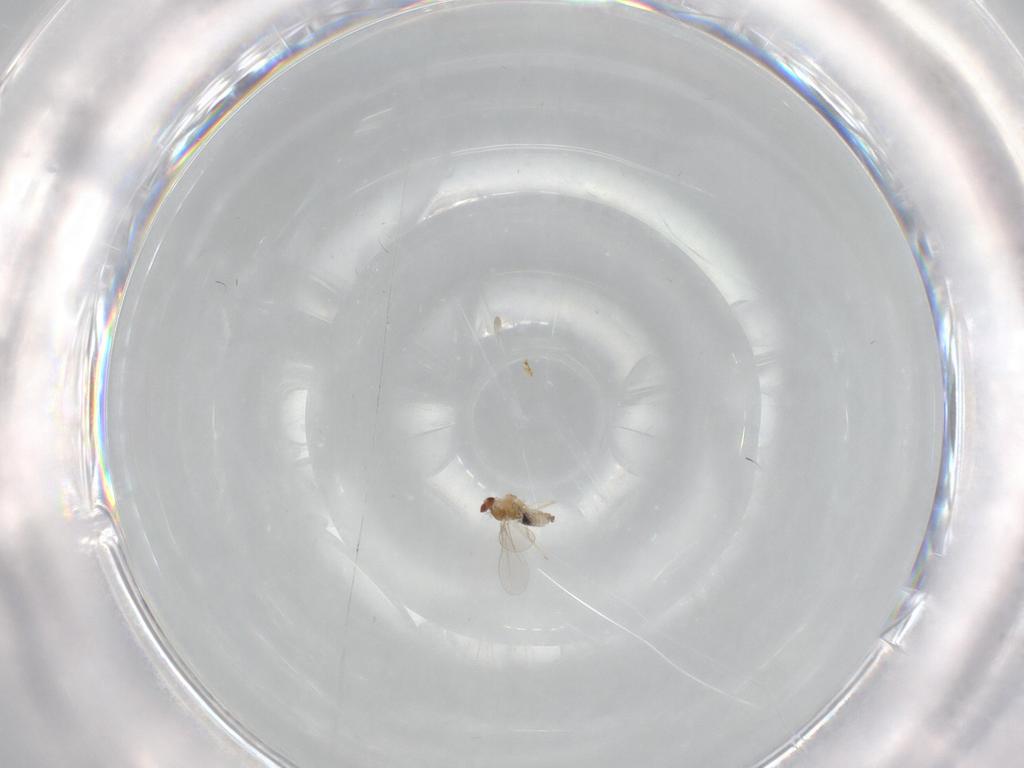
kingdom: Animalia
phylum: Arthropoda
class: Insecta
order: Diptera
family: Cecidomyiidae
